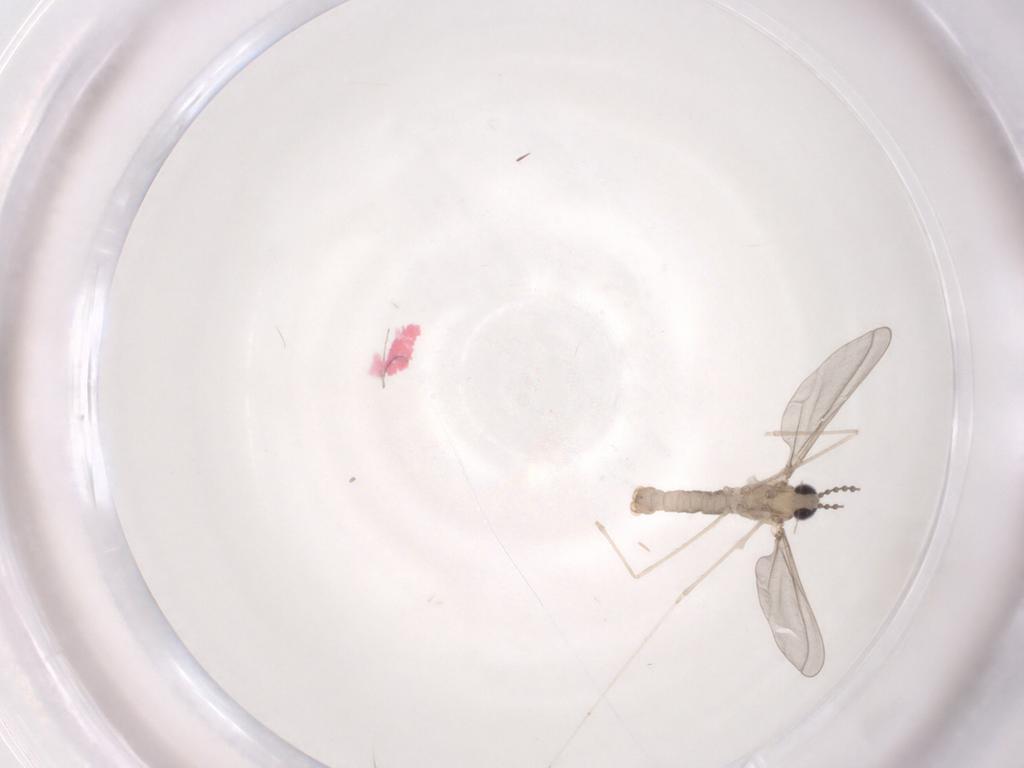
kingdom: Animalia
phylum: Arthropoda
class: Insecta
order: Diptera
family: Cecidomyiidae
